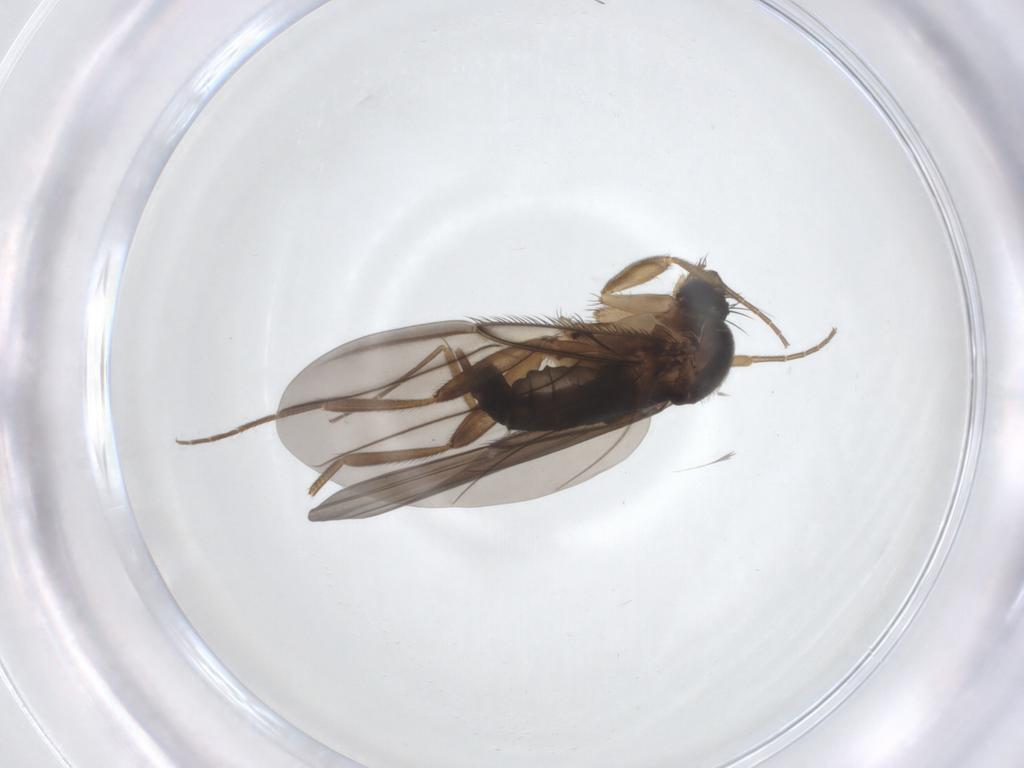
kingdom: Animalia
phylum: Arthropoda
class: Insecta
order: Diptera
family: Phoridae
